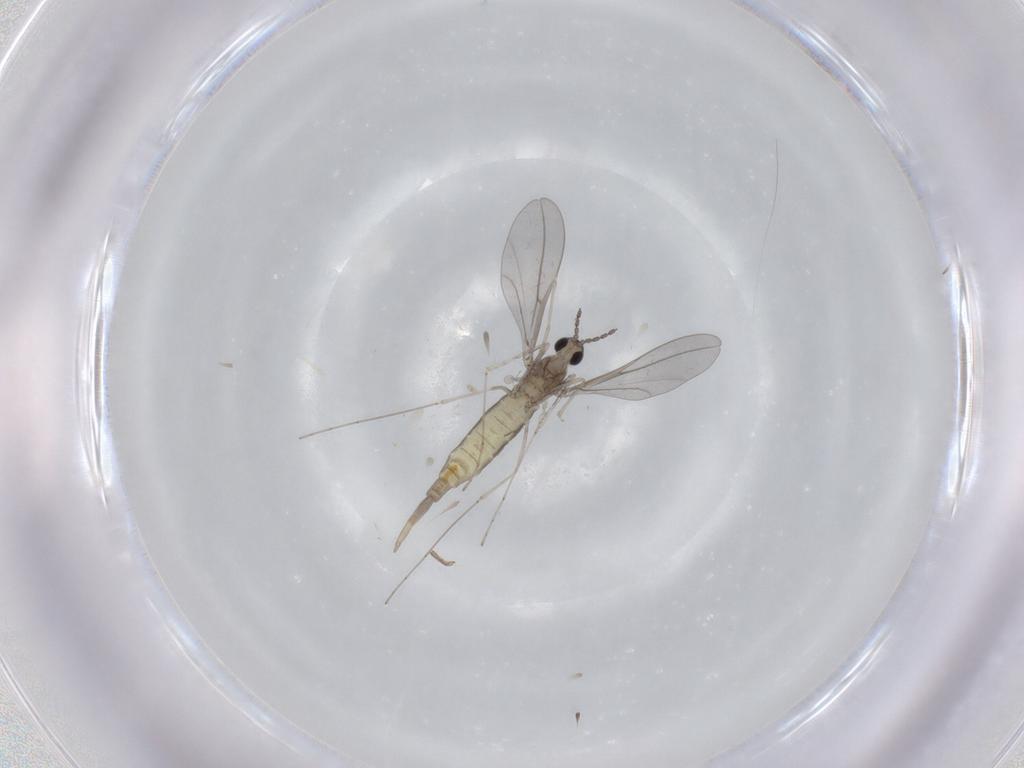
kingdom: Animalia
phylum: Arthropoda
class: Insecta
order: Diptera
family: Cecidomyiidae
